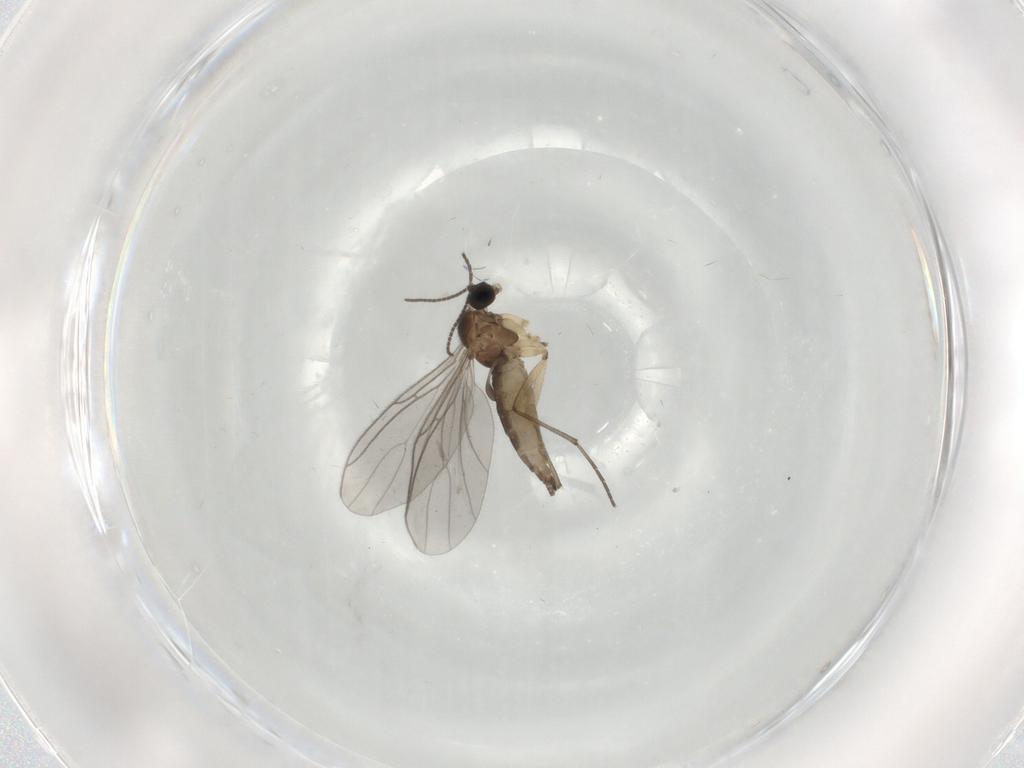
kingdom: Animalia
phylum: Arthropoda
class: Insecta
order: Diptera
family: Sciaridae
